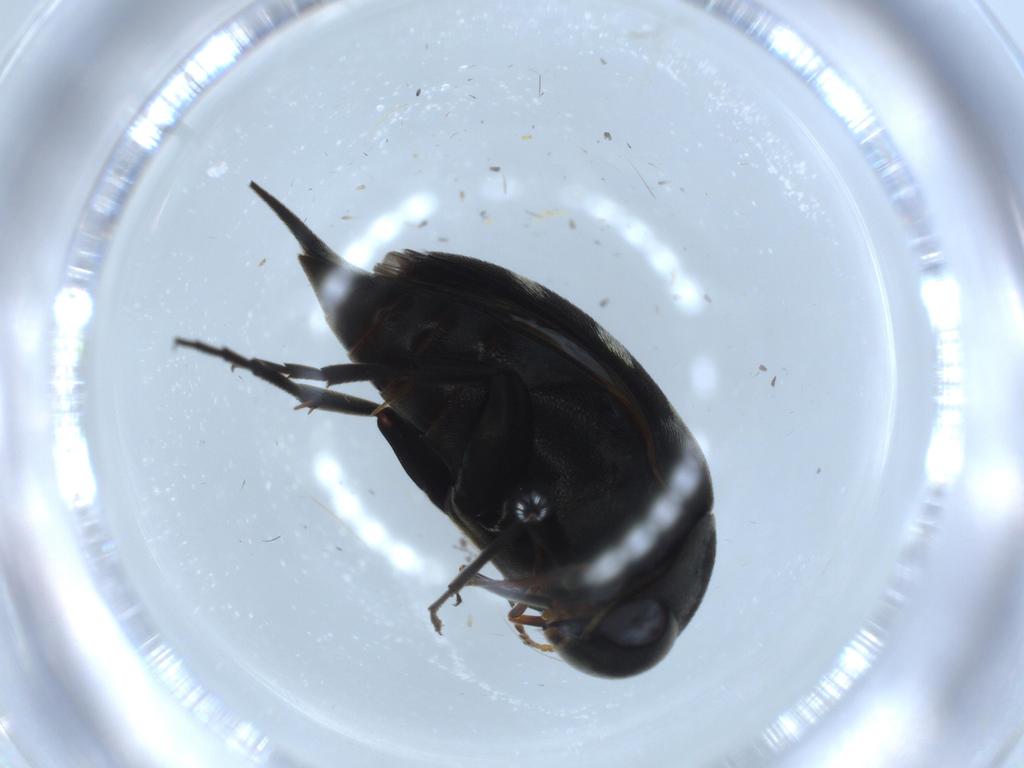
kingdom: Animalia
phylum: Arthropoda
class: Insecta
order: Coleoptera
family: Mordellidae
